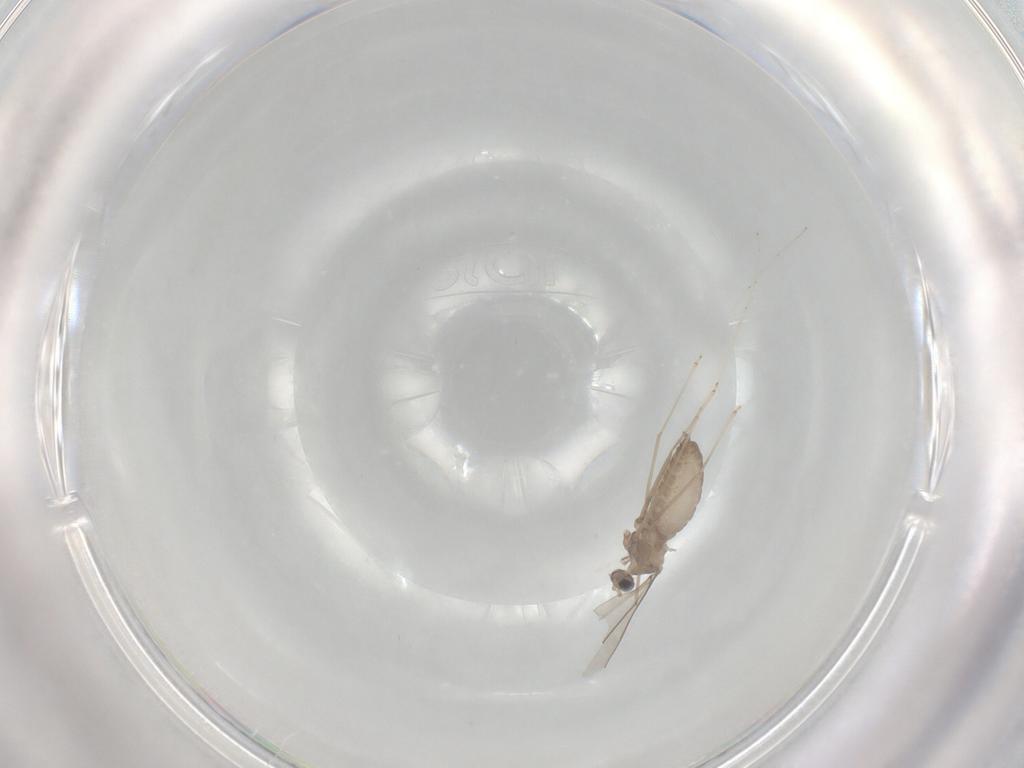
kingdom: Animalia
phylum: Arthropoda
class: Insecta
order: Diptera
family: Cecidomyiidae
